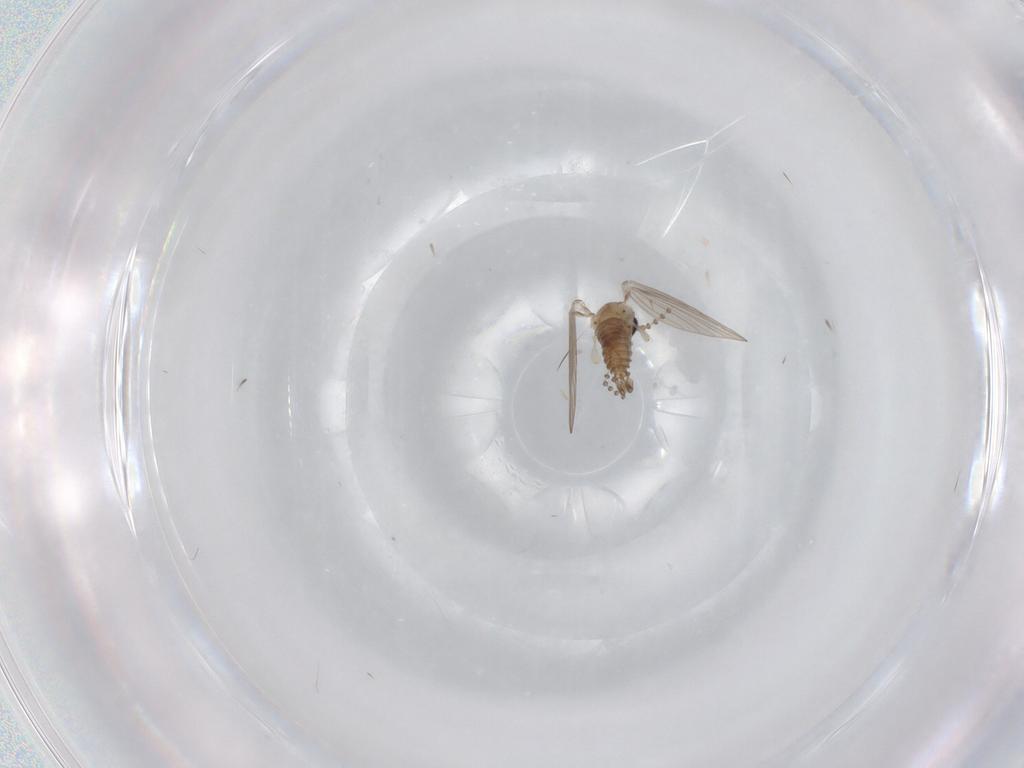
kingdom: Animalia
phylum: Arthropoda
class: Insecta
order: Diptera
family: Psychodidae
